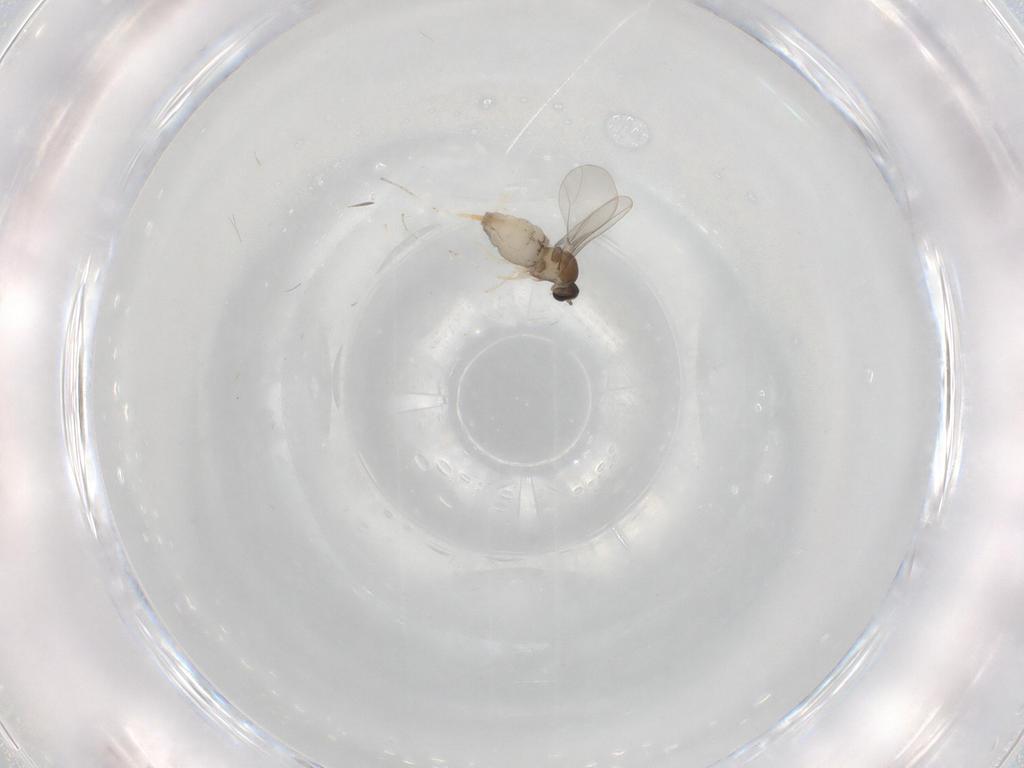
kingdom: Animalia
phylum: Arthropoda
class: Insecta
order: Diptera
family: Cecidomyiidae
